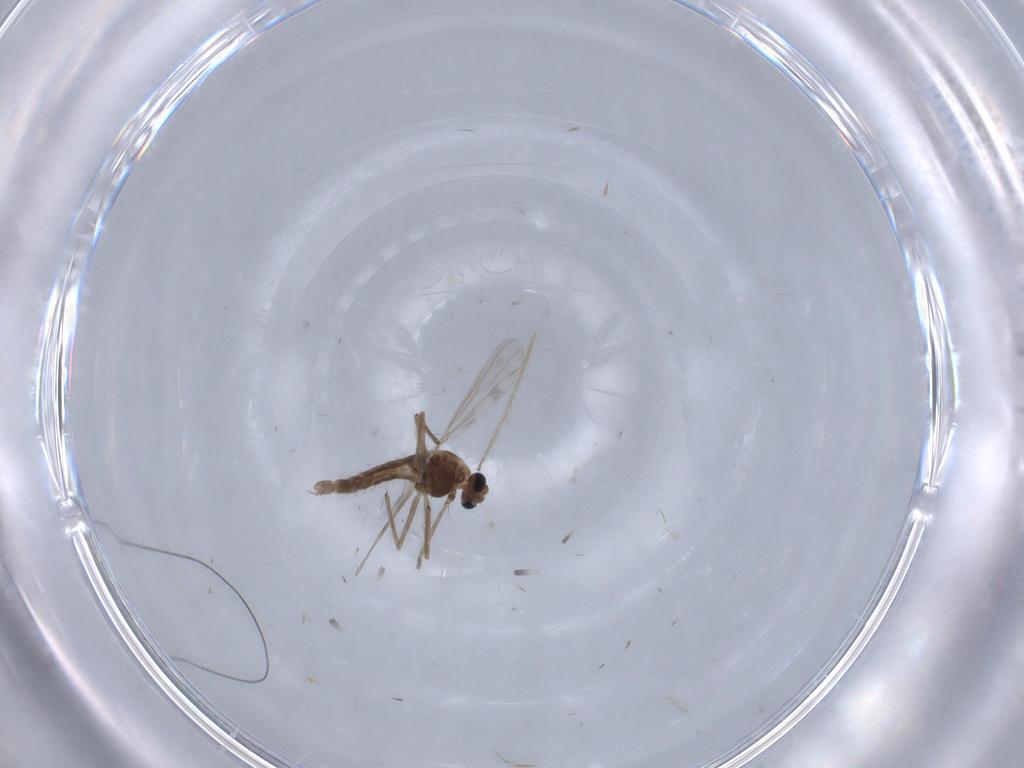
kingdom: Animalia
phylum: Arthropoda
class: Insecta
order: Diptera
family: Chironomidae
